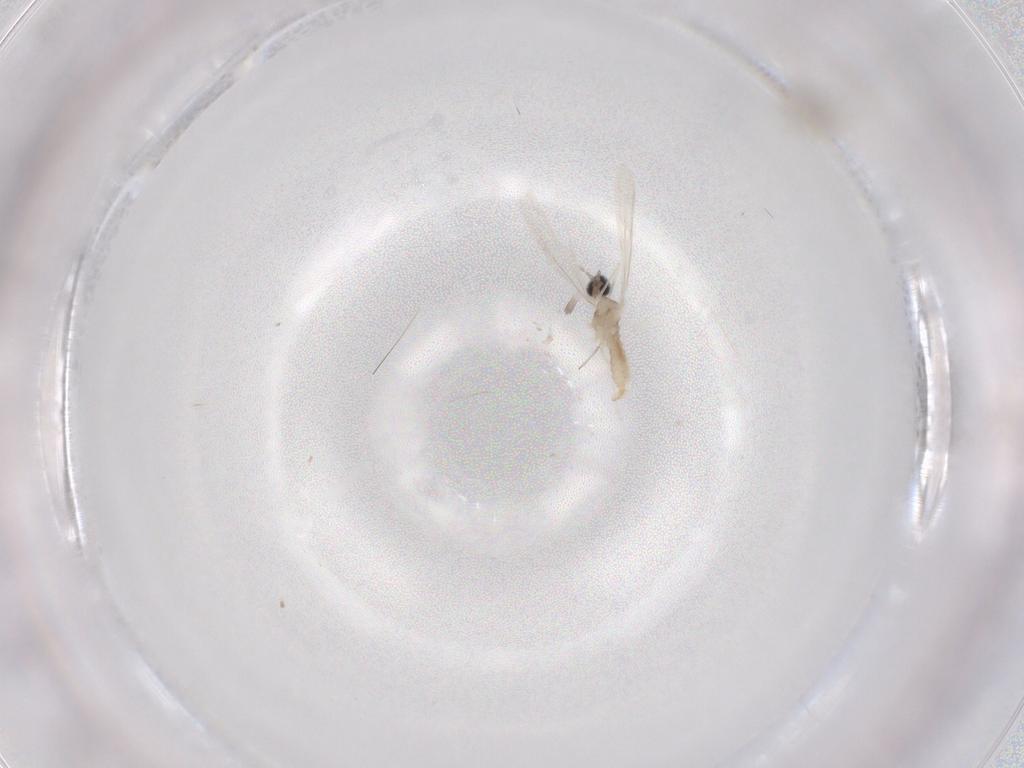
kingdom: Animalia
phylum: Arthropoda
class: Insecta
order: Diptera
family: Cecidomyiidae
